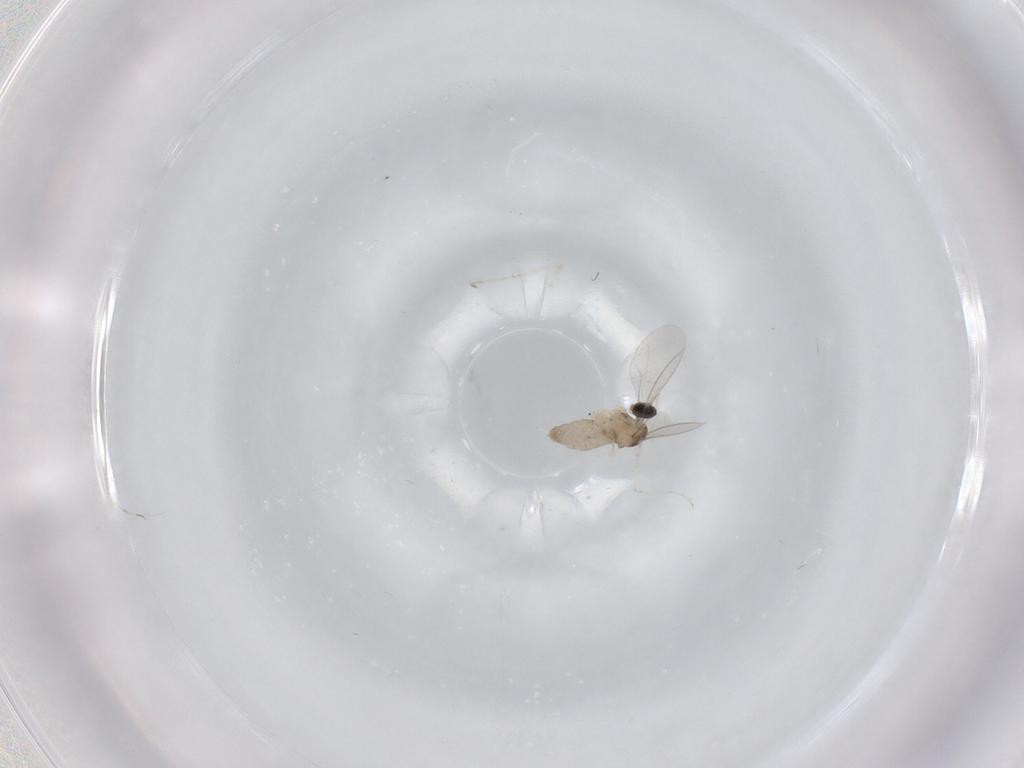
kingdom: Animalia
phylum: Arthropoda
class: Insecta
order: Diptera
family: Cecidomyiidae
